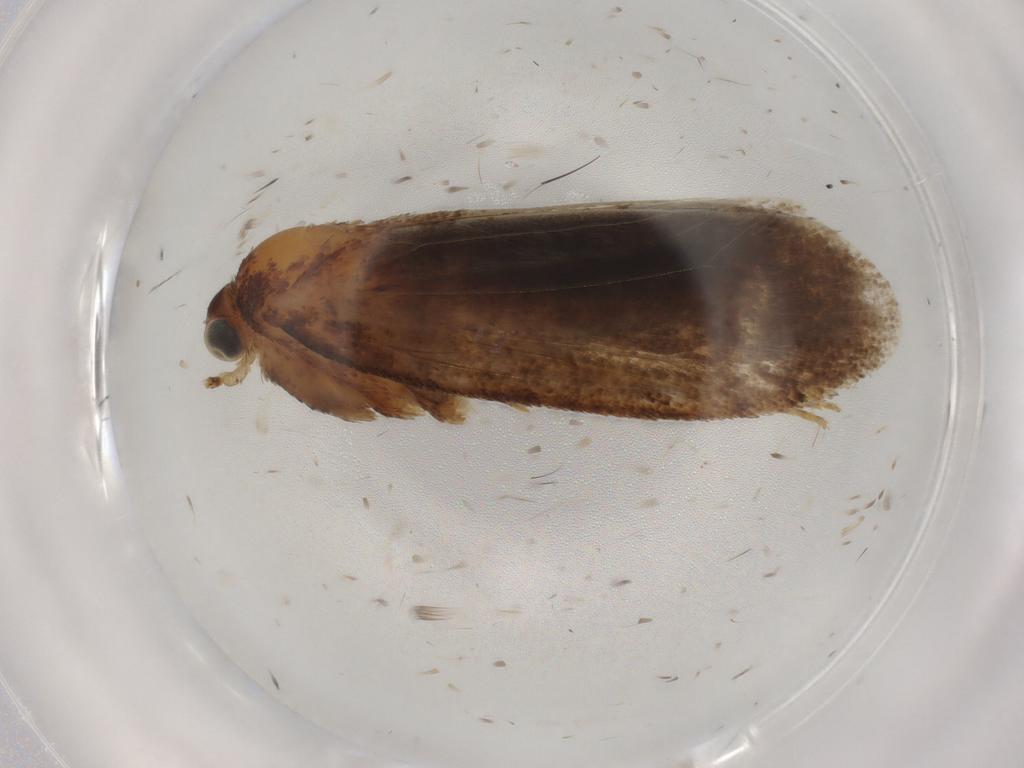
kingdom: Animalia
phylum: Arthropoda
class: Insecta
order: Lepidoptera
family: Nepticulidae
